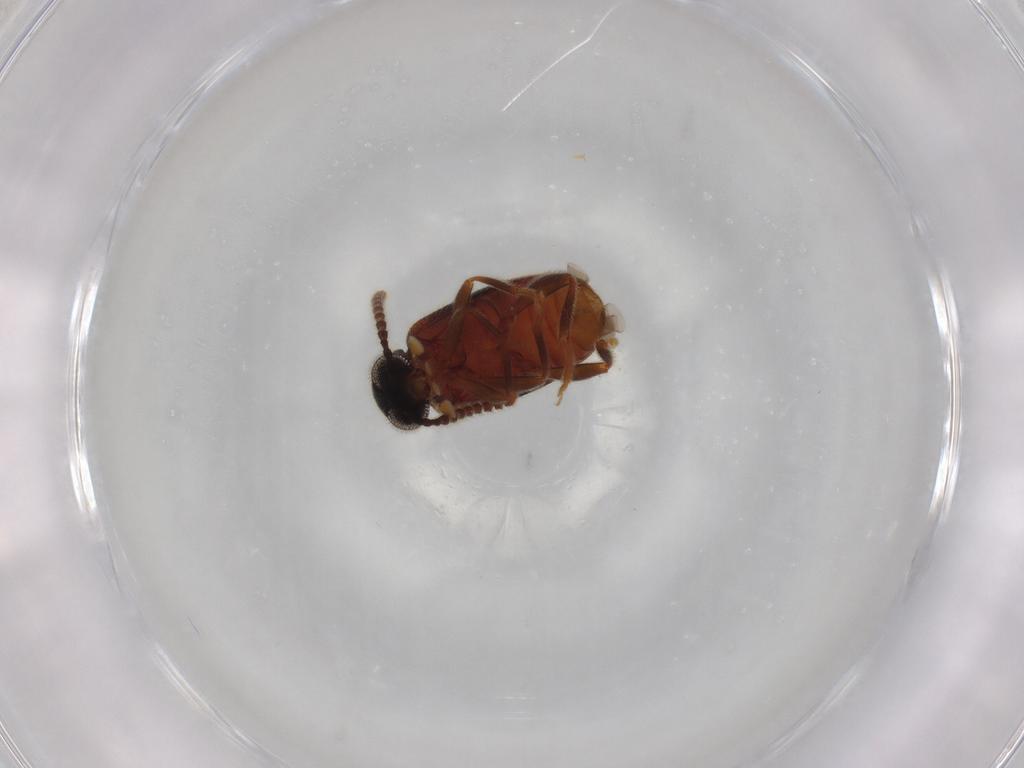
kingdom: Animalia
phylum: Arthropoda
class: Insecta
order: Coleoptera
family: Aderidae
